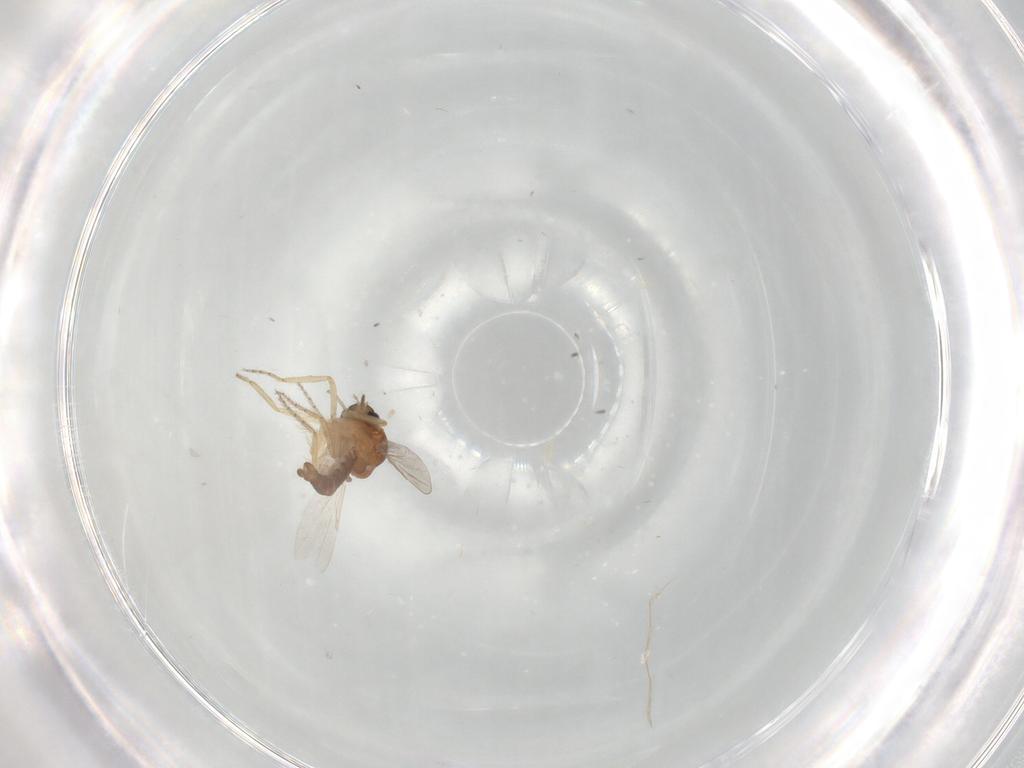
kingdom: Animalia
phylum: Arthropoda
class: Insecta
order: Diptera
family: Ceratopogonidae
